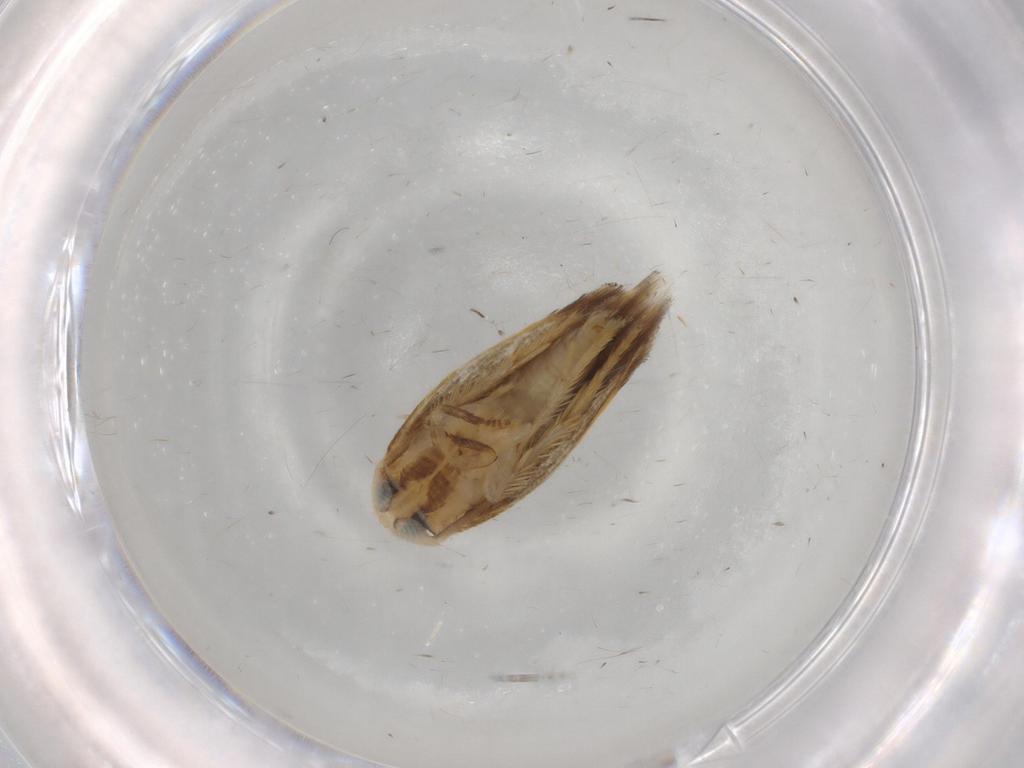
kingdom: Animalia
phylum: Arthropoda
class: Insecta
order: Lepidoptera
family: Opostegidae
